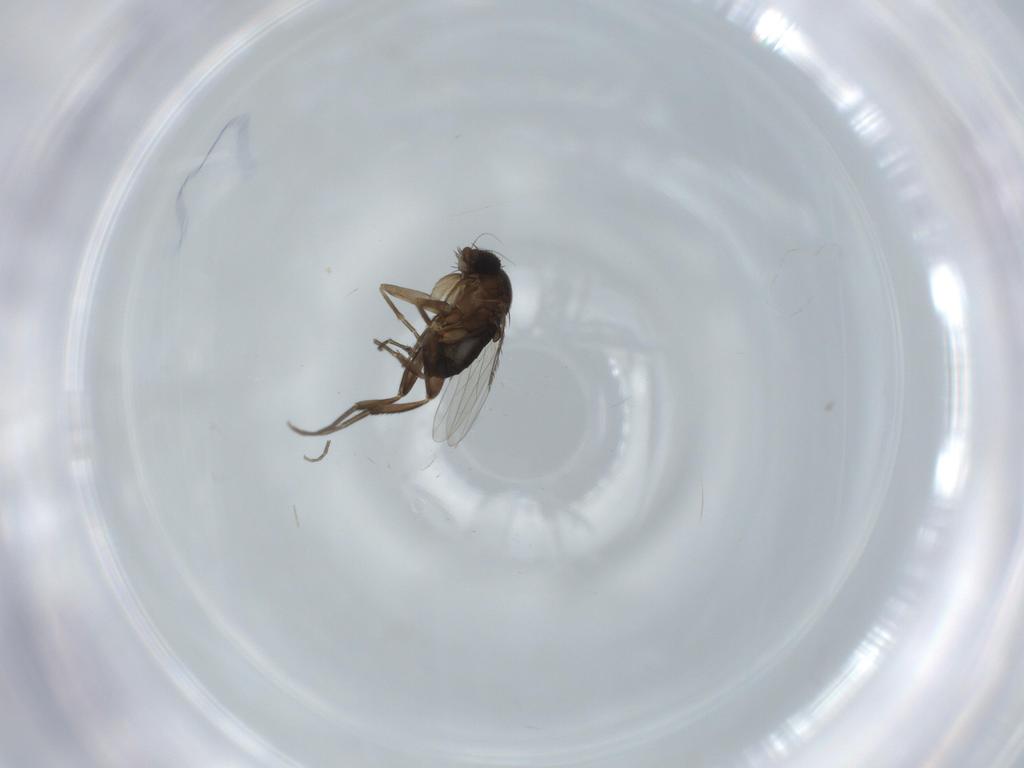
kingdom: Animalia
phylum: Arthropoda
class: Insecta
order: Diptera
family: Phoridae
